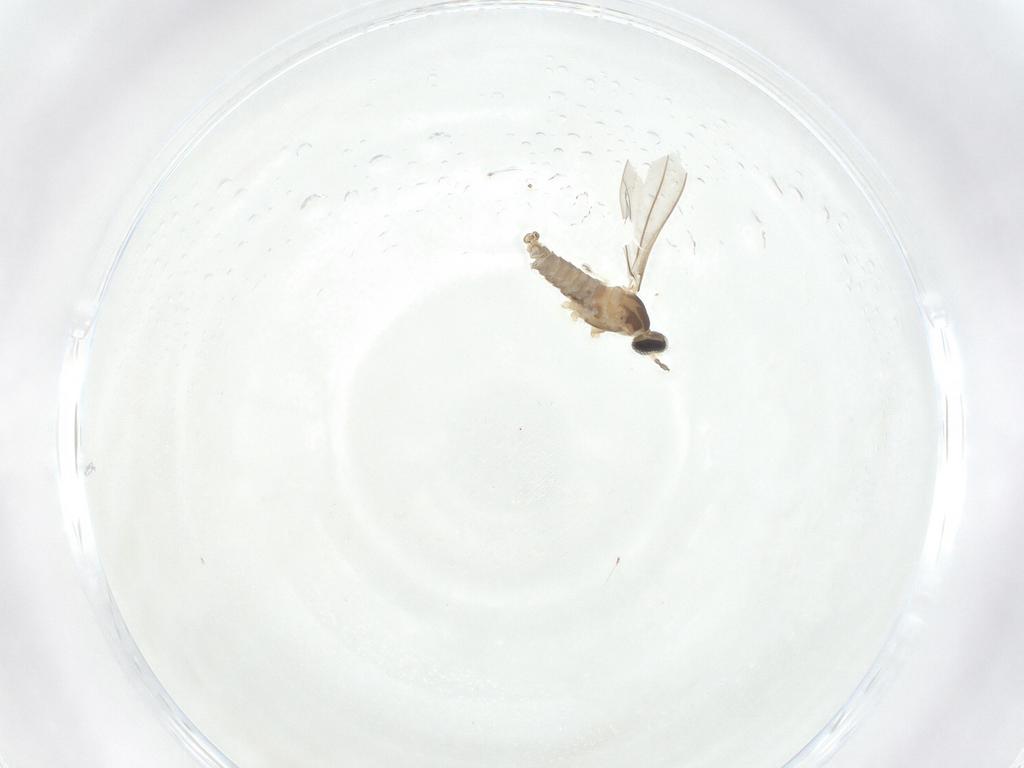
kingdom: Animalia
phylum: Arthropoda
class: Insecta
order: Diptera
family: Cecidomyiidae
